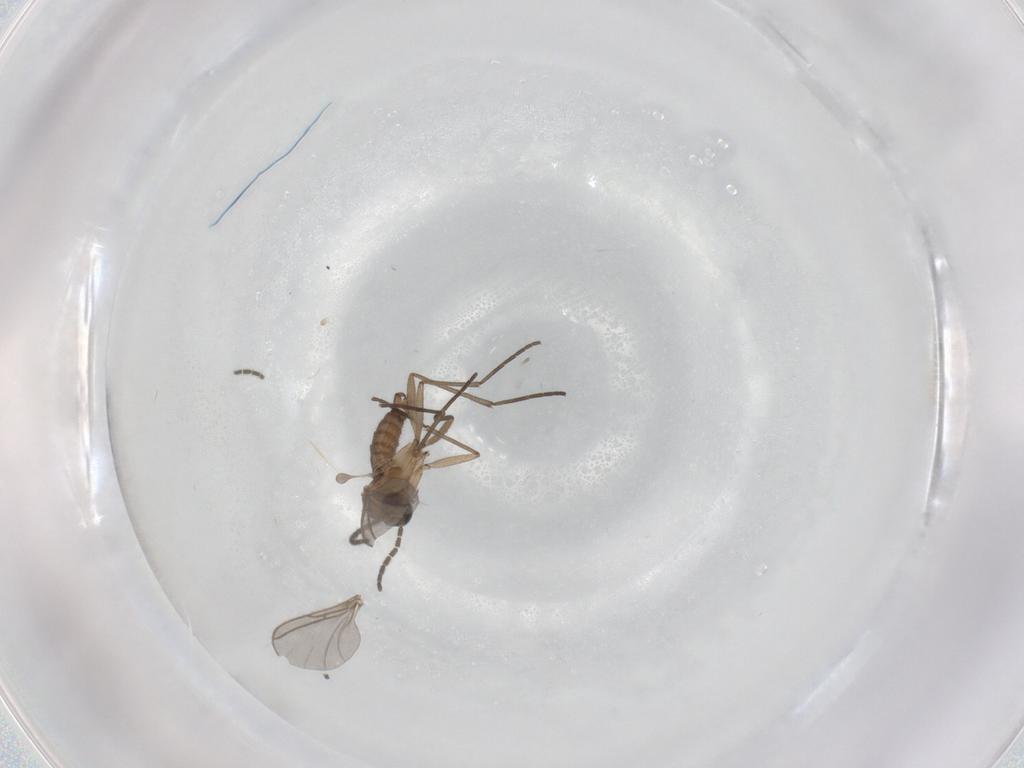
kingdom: Animalia
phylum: Arthropoda
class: Insecta
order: Diptera
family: Sciaridae
